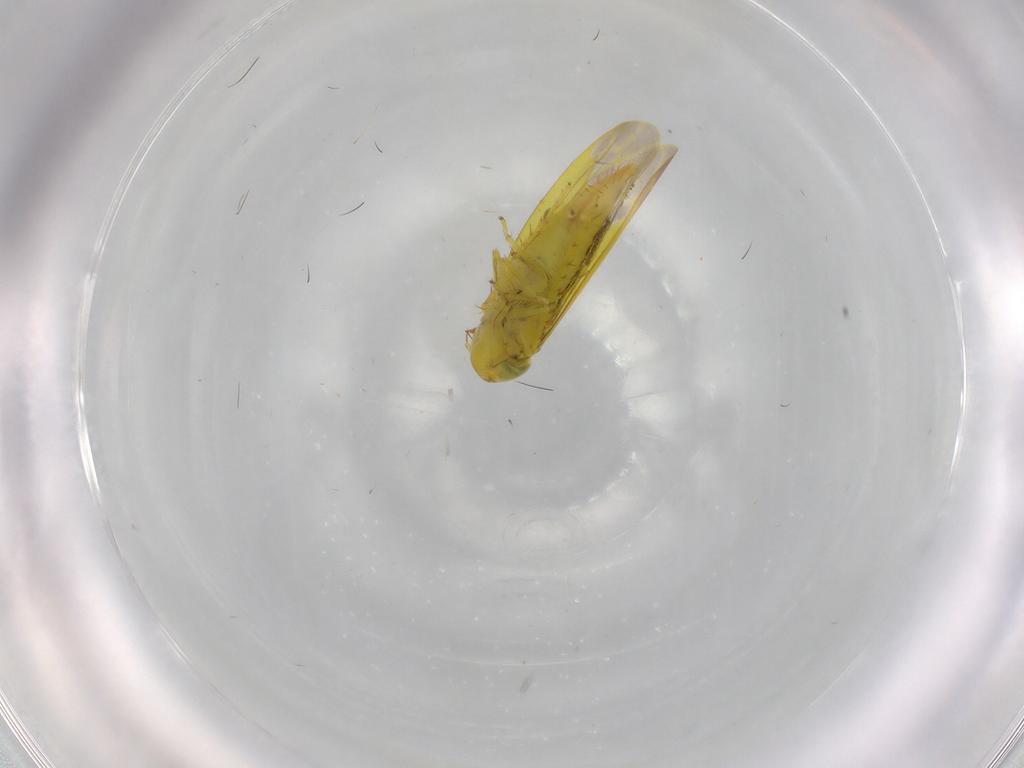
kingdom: Animalia
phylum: Arthropoda
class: Insecta
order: Hemiptera
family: Cicadellidae
